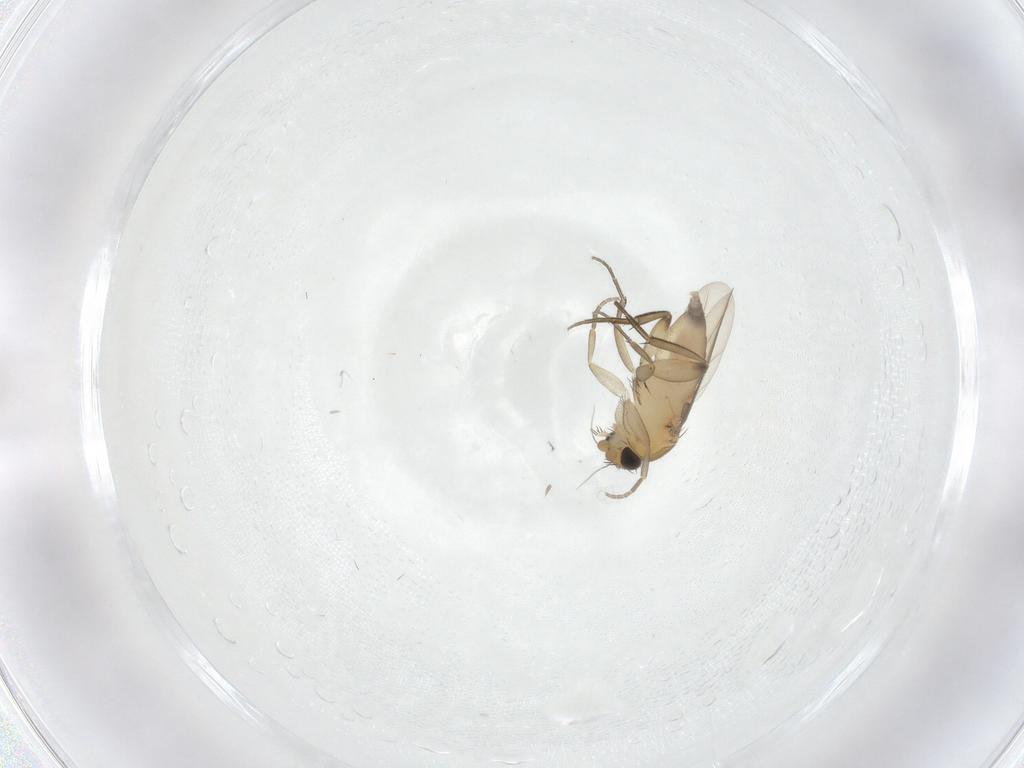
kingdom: Animalia
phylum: Arthropoda
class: Insecta
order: Diptera
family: Phoridae
